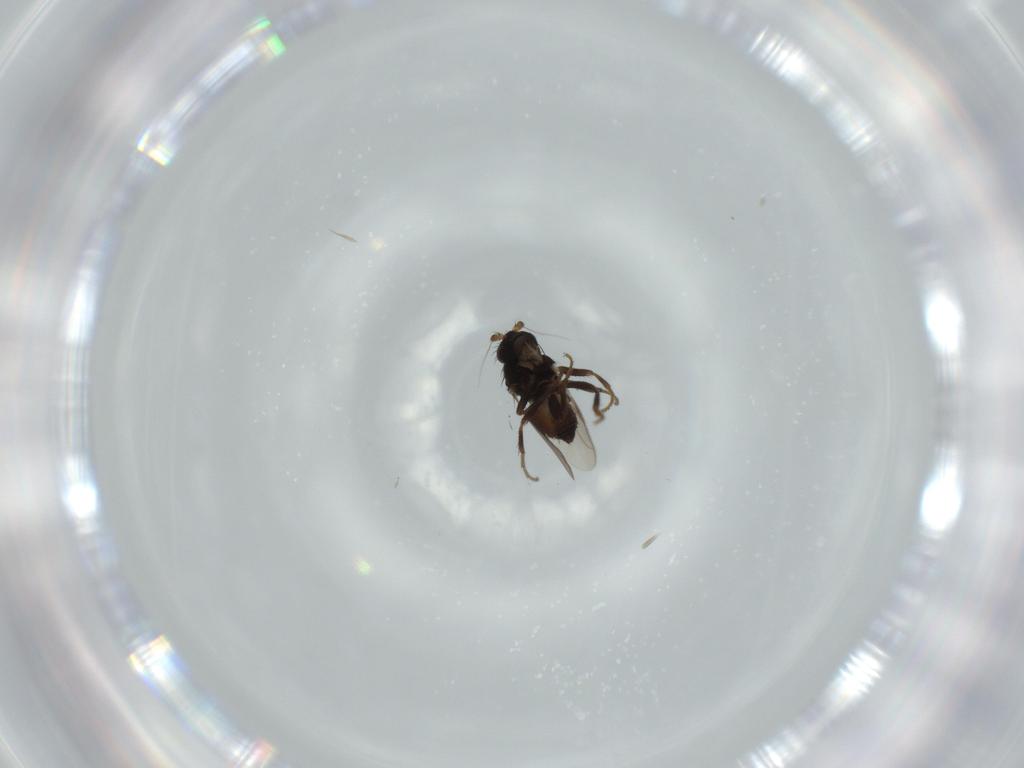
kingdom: Animalia
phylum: Arthropoda
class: Insecta
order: Diptera
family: Sphaeroceridae
